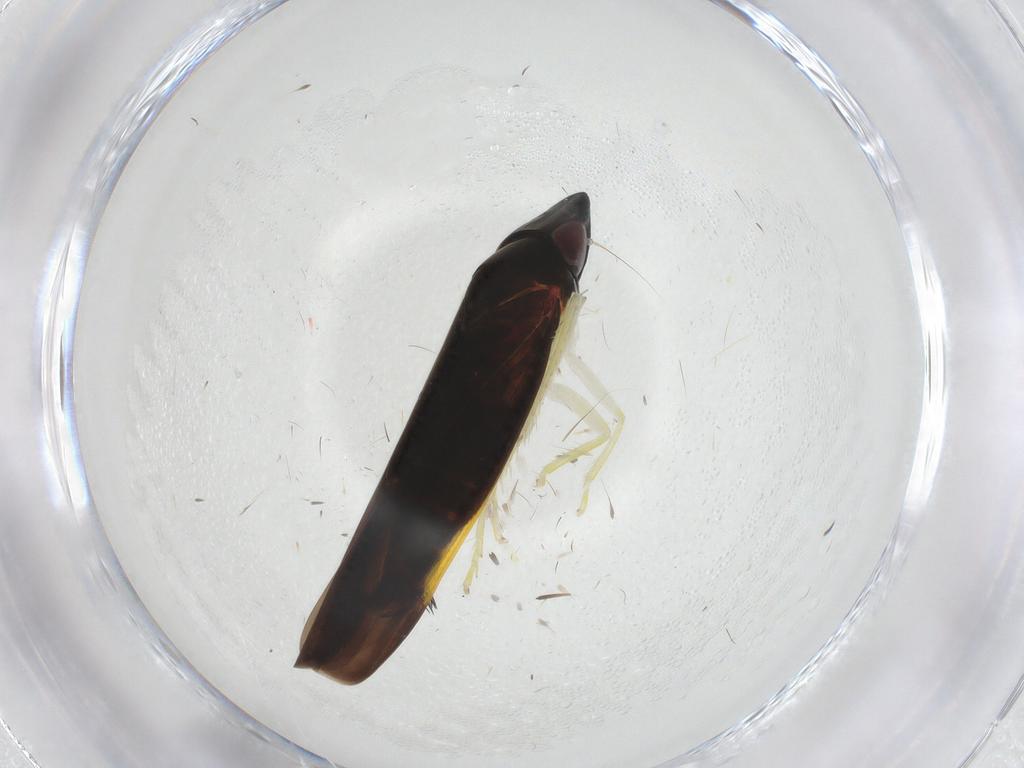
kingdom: Animalia
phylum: Arthropoda
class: Insecta
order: Hemiptera
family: Cicadellidae
